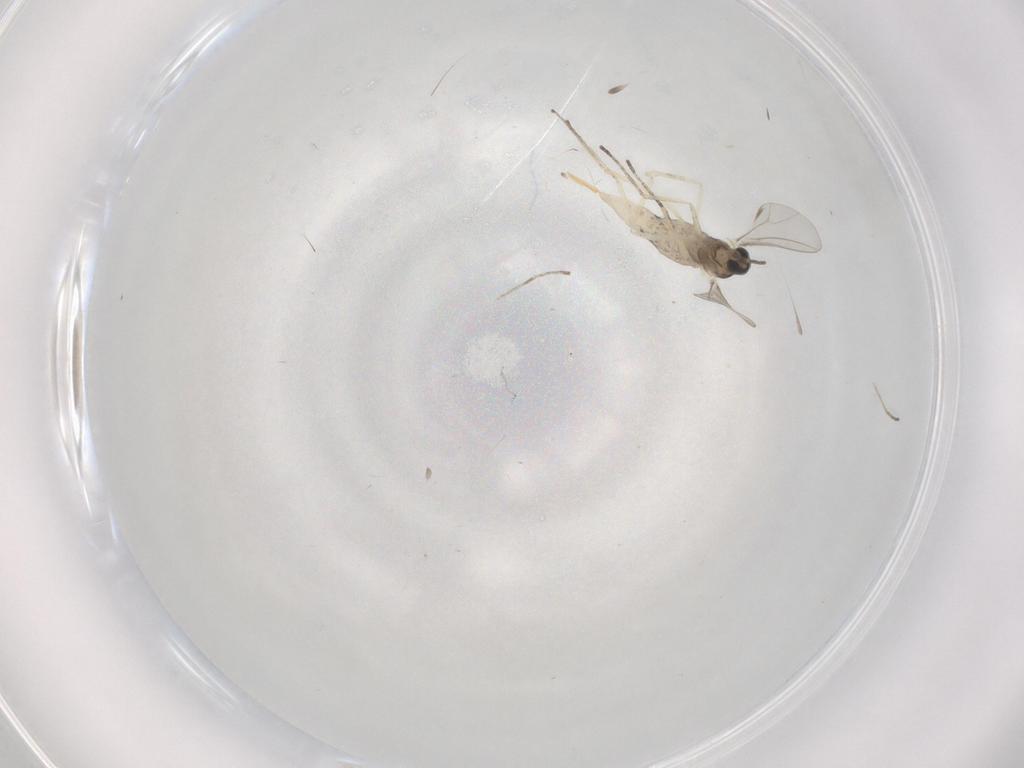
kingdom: Animalia
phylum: Arthropoda
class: Insecta
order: Diptera
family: Cecidomyiidae
